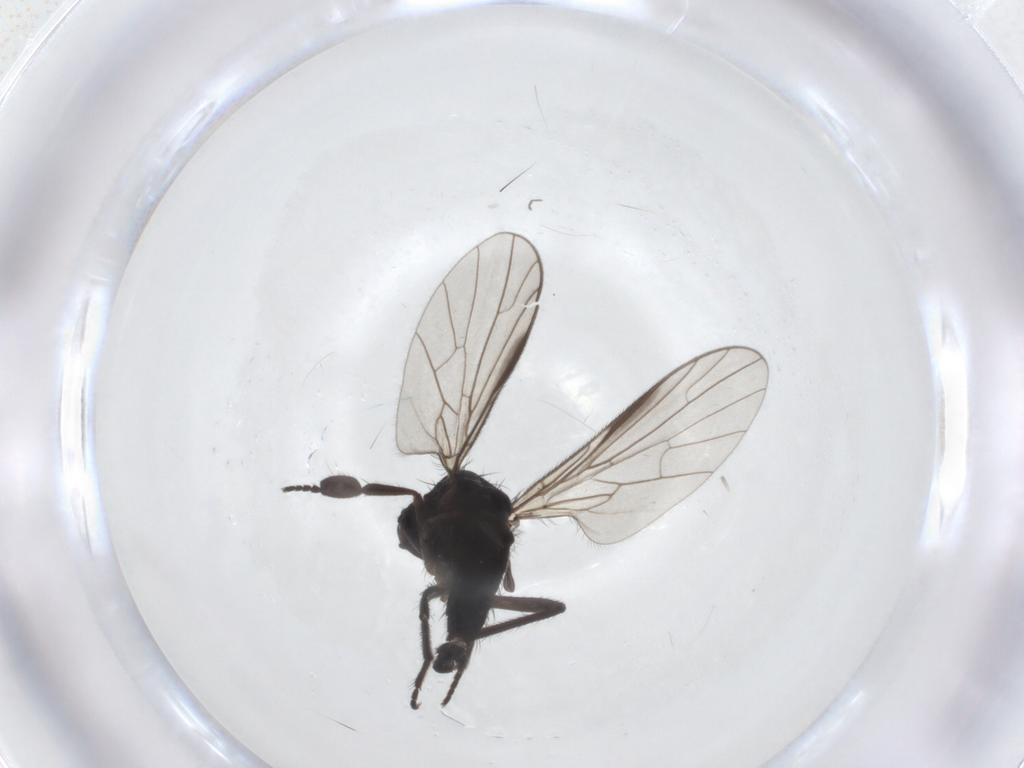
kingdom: Animalia
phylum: Arthropoda
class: Insecta
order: Diptera
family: Empididae
